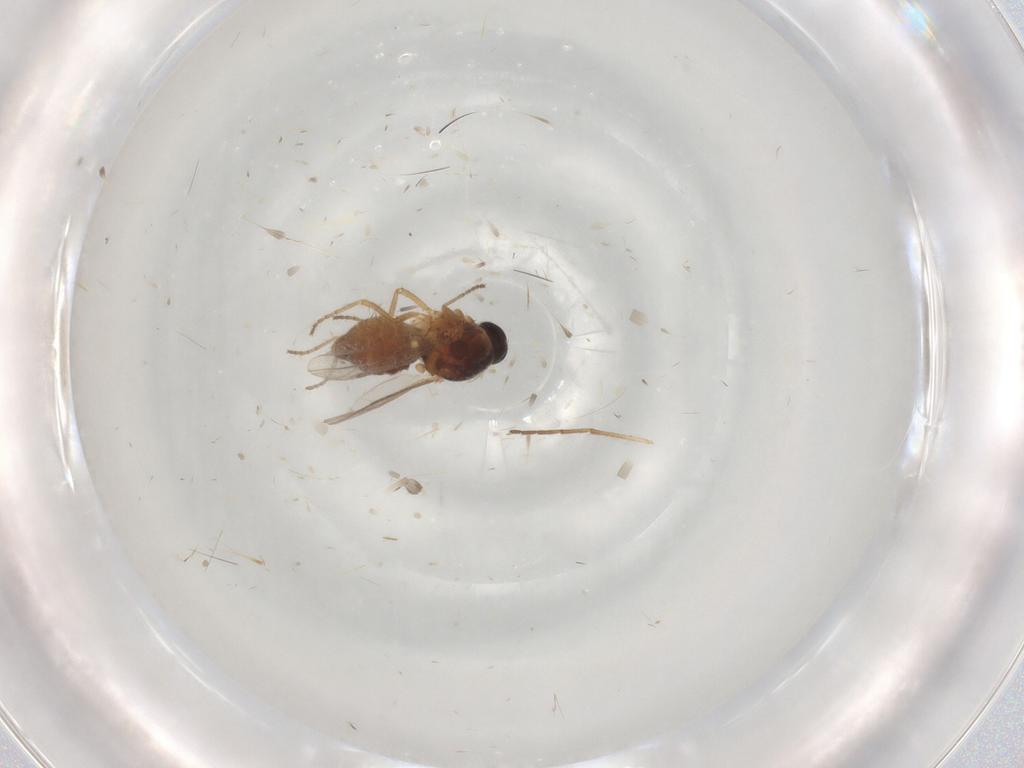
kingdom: Animalia
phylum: Arthropoda
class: Insecta
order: Diptera
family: Ceratopogonidae
